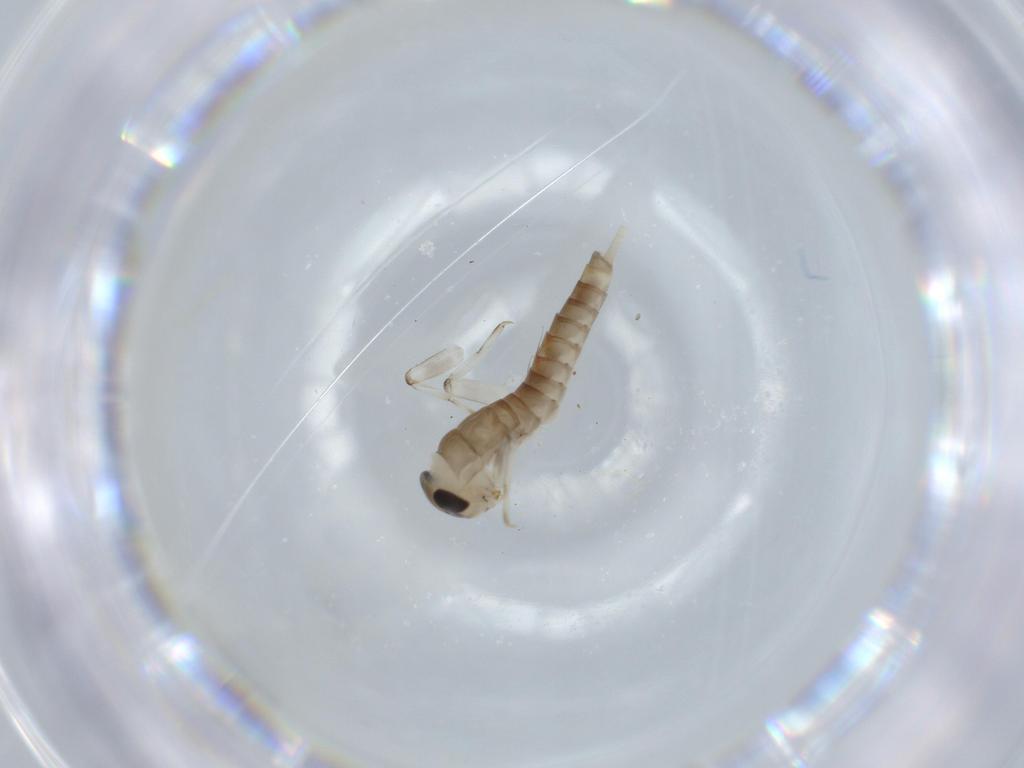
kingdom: Animalia
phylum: Arthropoda
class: Insecta
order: Ephemeroptera
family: Baetidae
